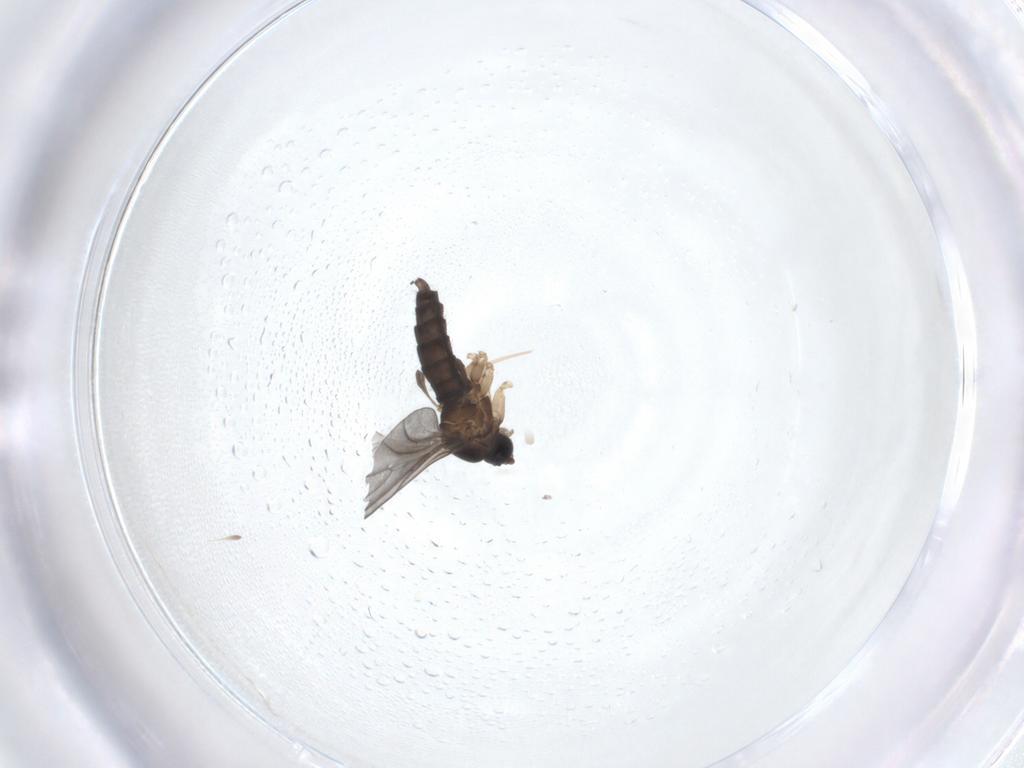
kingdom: Animalia
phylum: Arthropoda
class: Insecta
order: Diptera
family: Sciaridae
